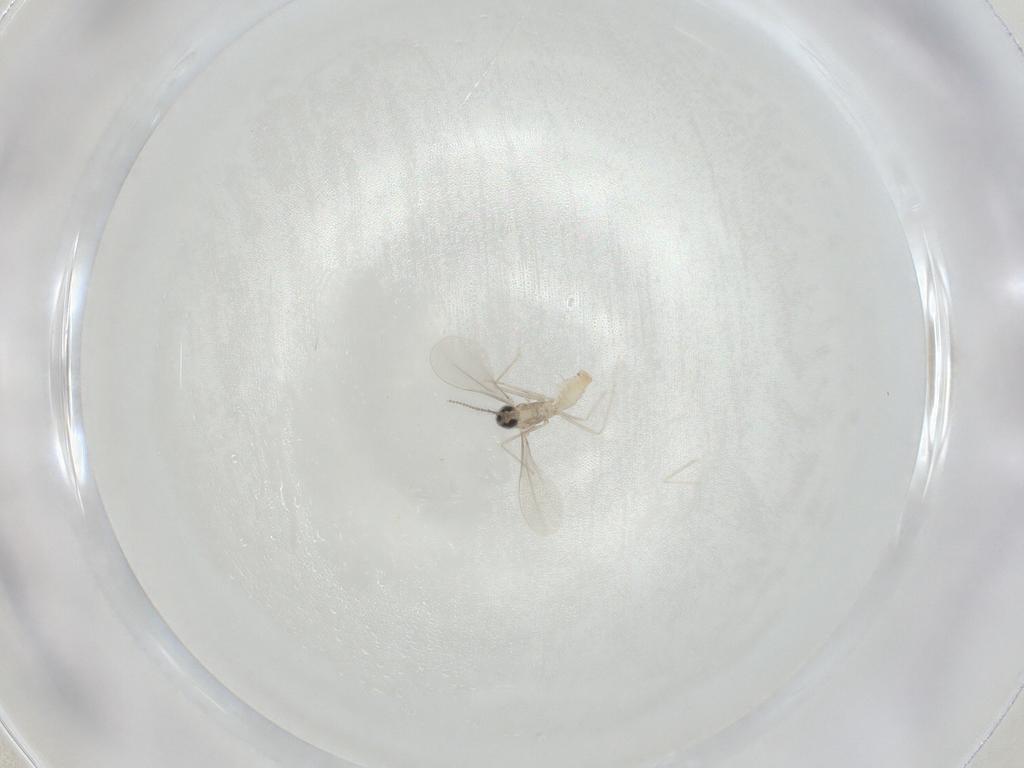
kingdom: Animalia
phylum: Arthropoda
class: Insecta
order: Diptera
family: Cecidomyiidae
